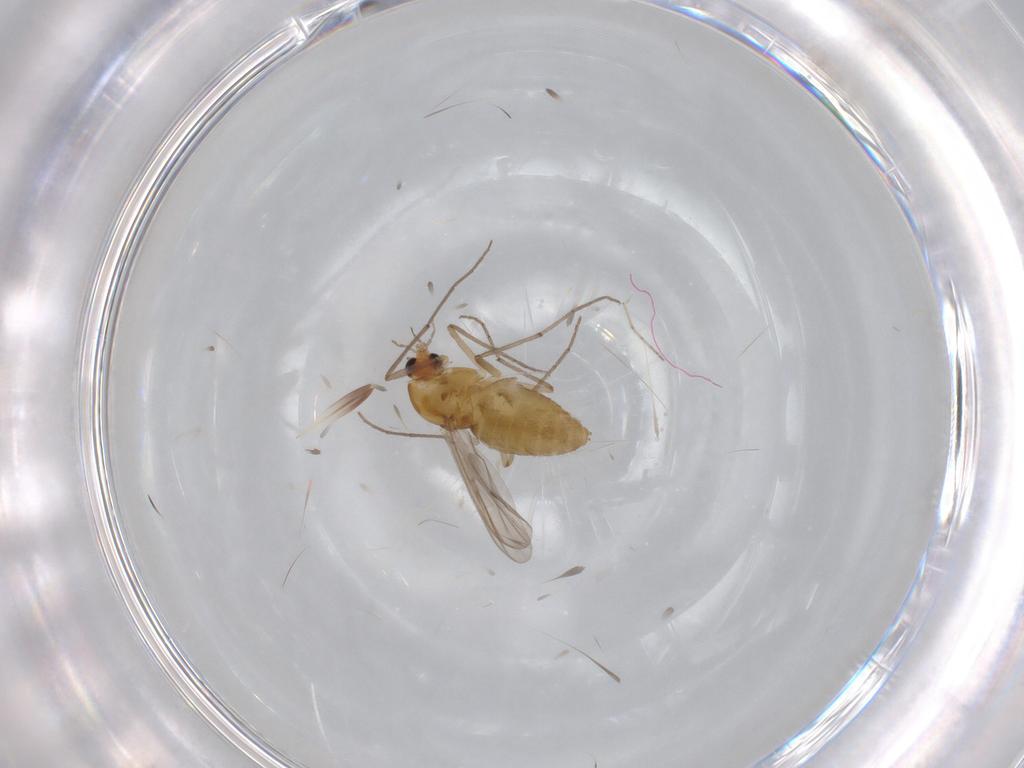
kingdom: Animalia
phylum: Arthropoda
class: Insecta
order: Diptera
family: Chironomidae
